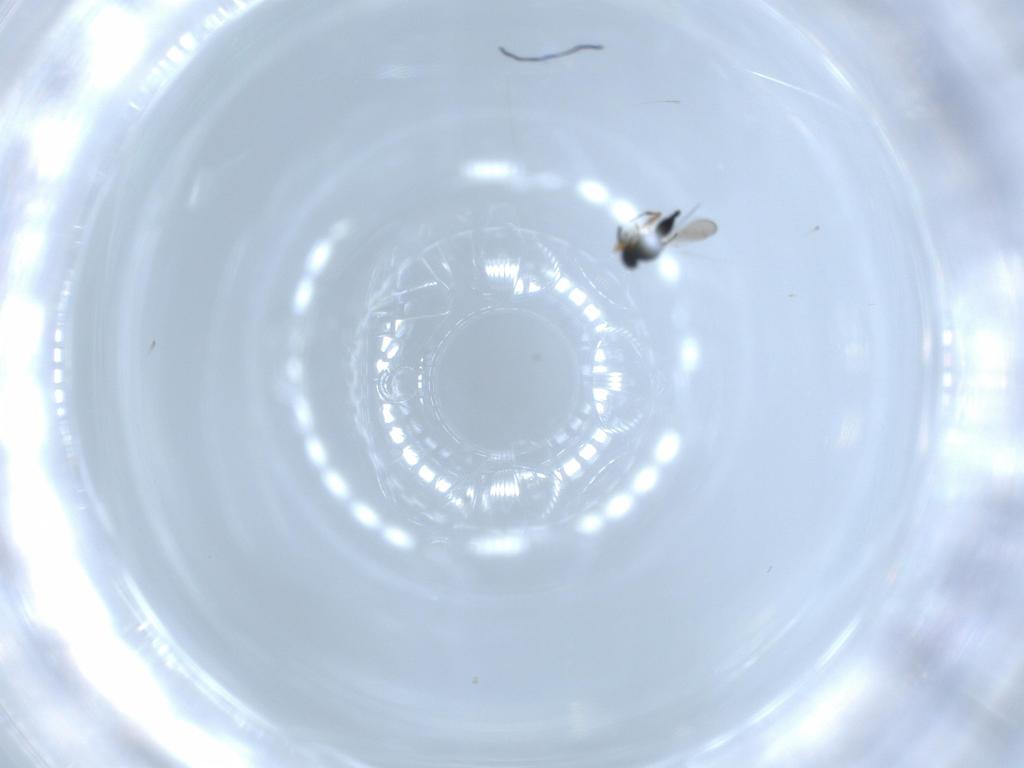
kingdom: Animalia
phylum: Arthropoda
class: Insecta
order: Hymenoptera
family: Platygastridae
